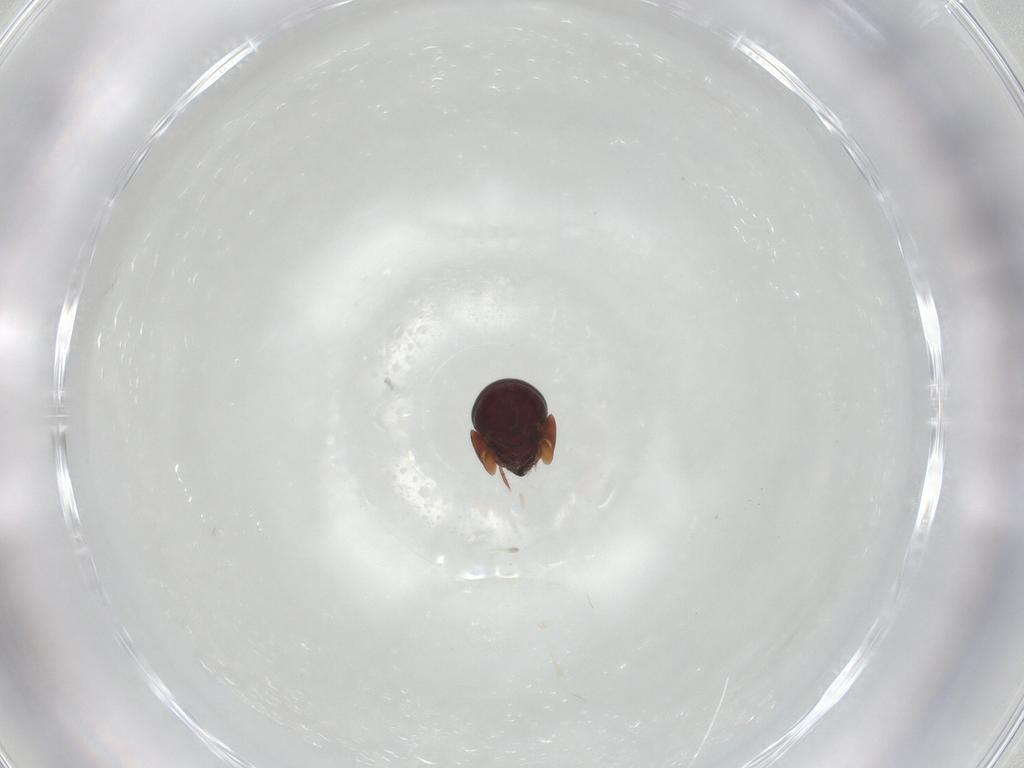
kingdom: Animalia
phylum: Arthropoda
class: Arachnida
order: Sarcoptiformes
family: Galumnidae
